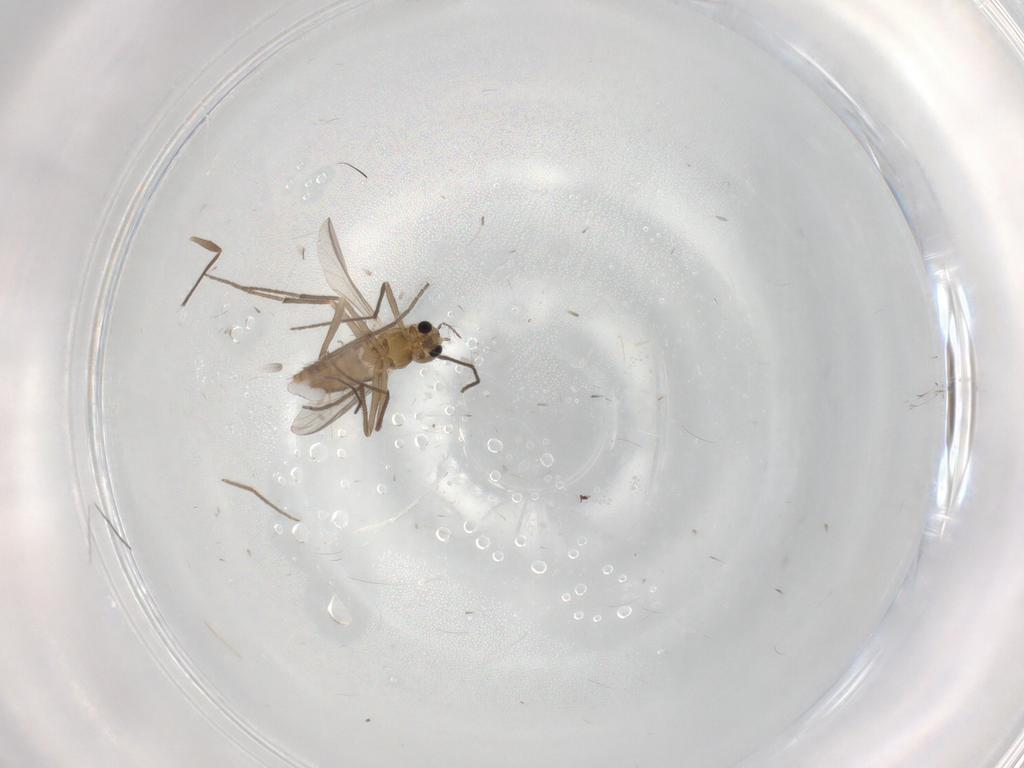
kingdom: Animalia
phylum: Arthropoda
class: Insecta
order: Diptera
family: Chironomidae
